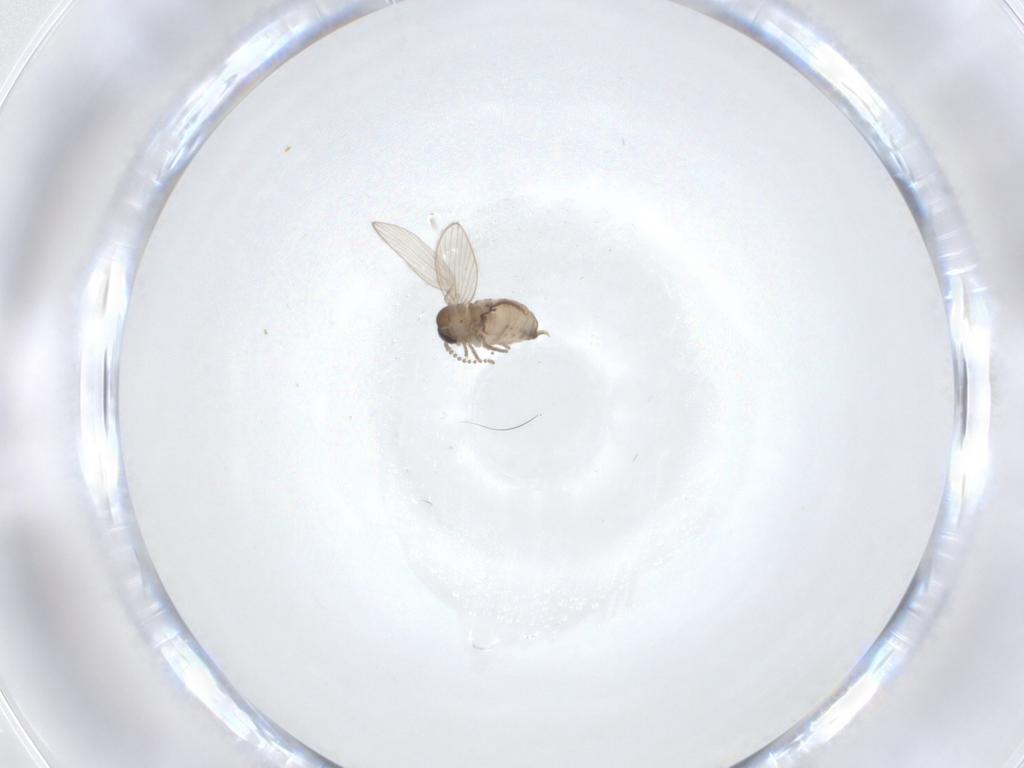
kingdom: Animalia
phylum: Arthropoda
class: Insecta
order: Diptera
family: Psychodidae
